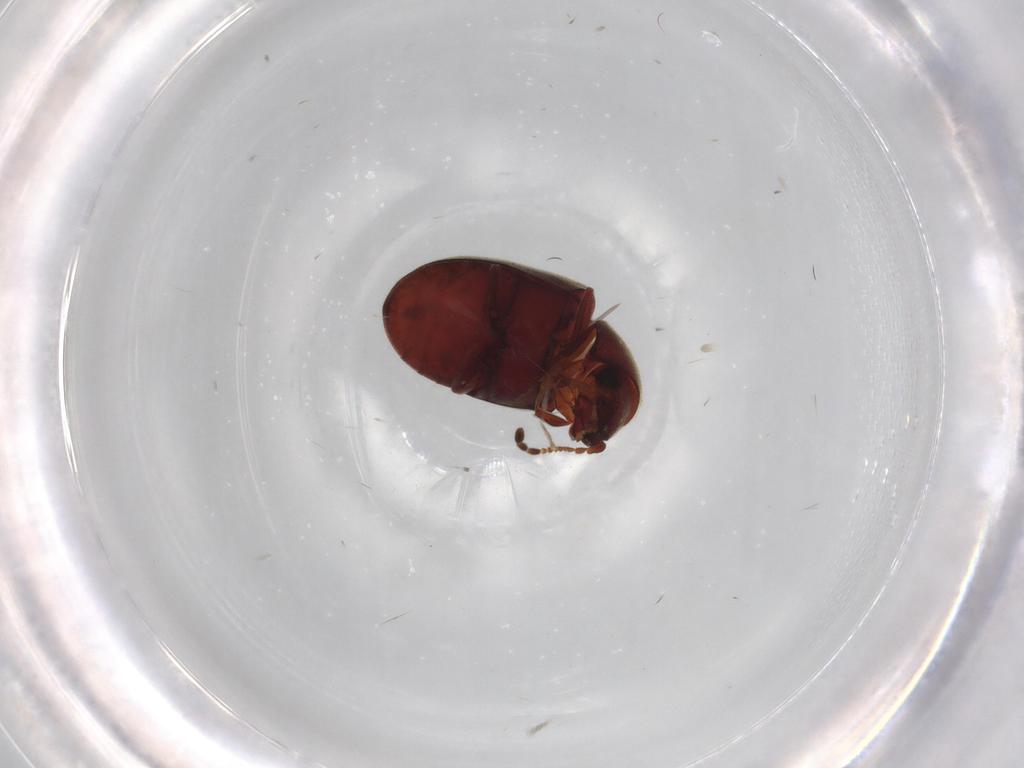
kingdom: Animalia
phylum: Arthropoda
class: Insecta
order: Coleoptera
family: Ptinidae
